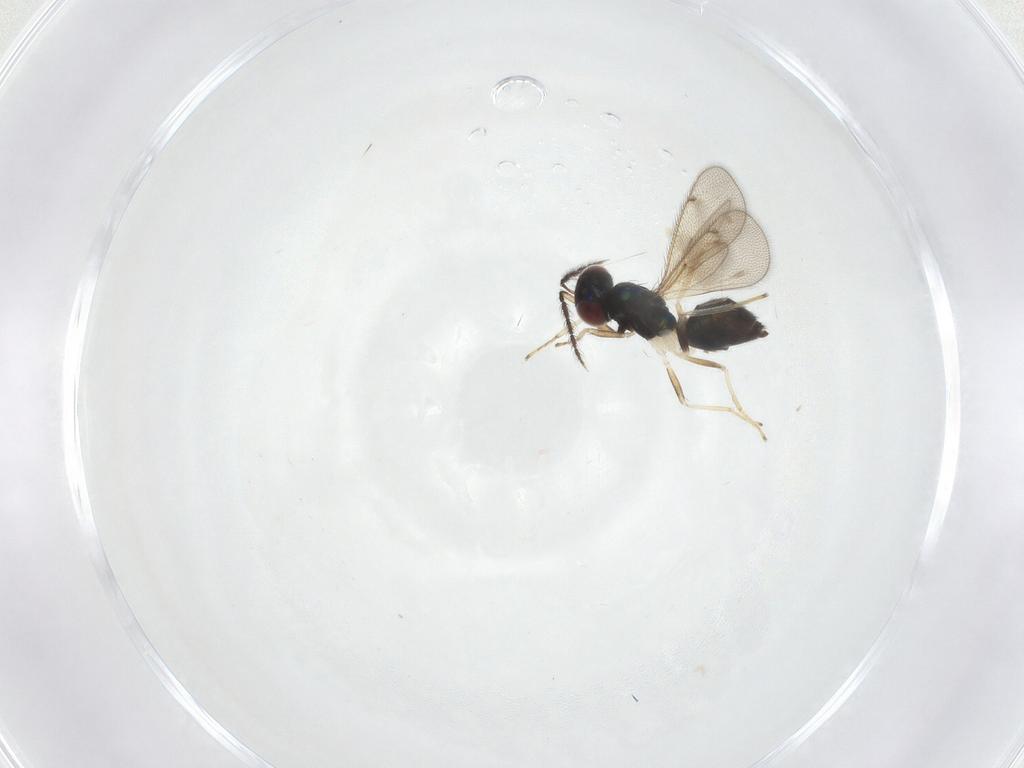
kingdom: Animalia
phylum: Arthropoda
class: Insecta
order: Hymenoptera
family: Eulophidae
